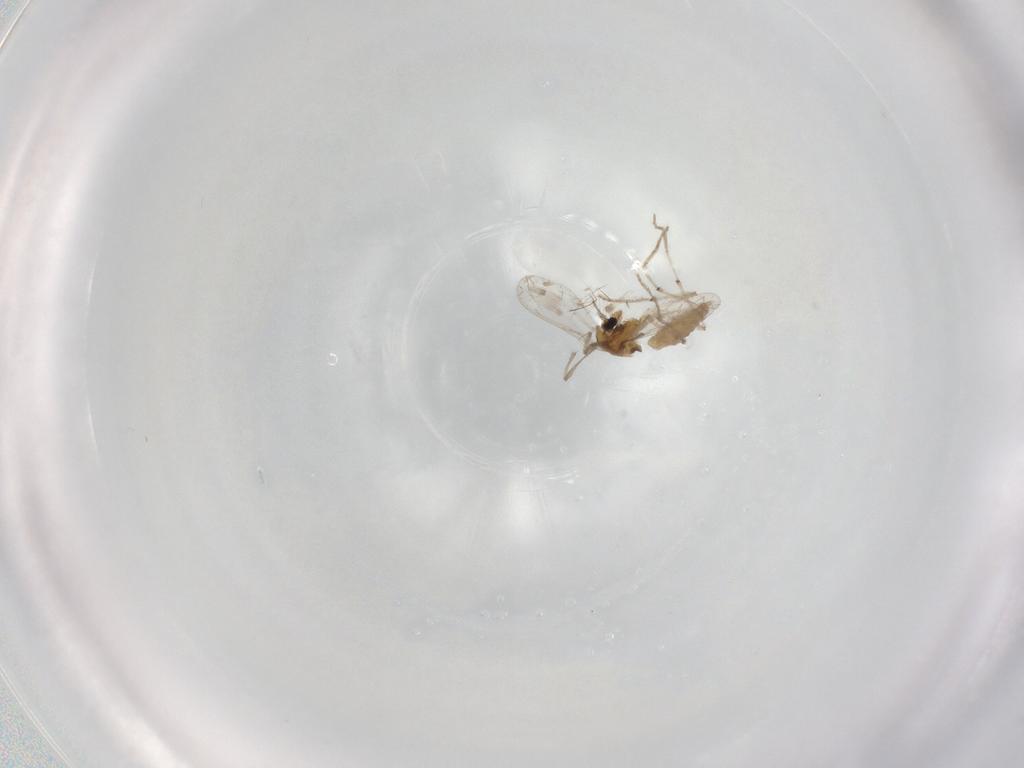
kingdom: Animalia
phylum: Arthropoda
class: Insecta
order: Diptera
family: Chironomidae
